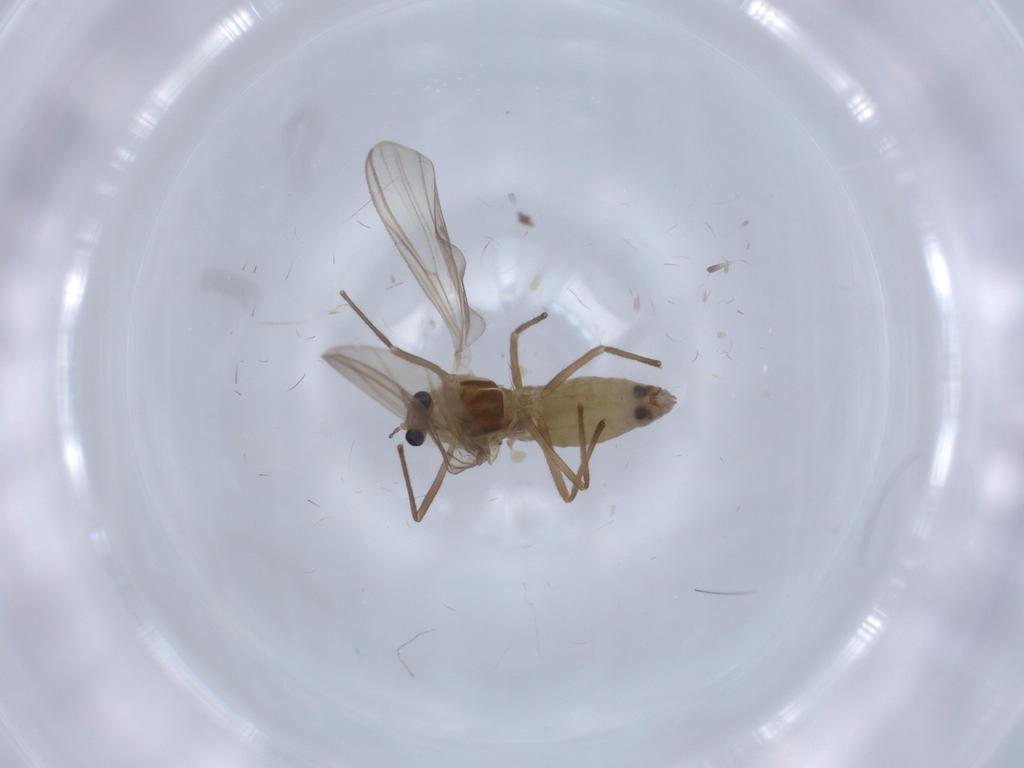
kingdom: Animalia
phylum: Arthropoda
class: Insecta
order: Diptera
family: Chironomidae
